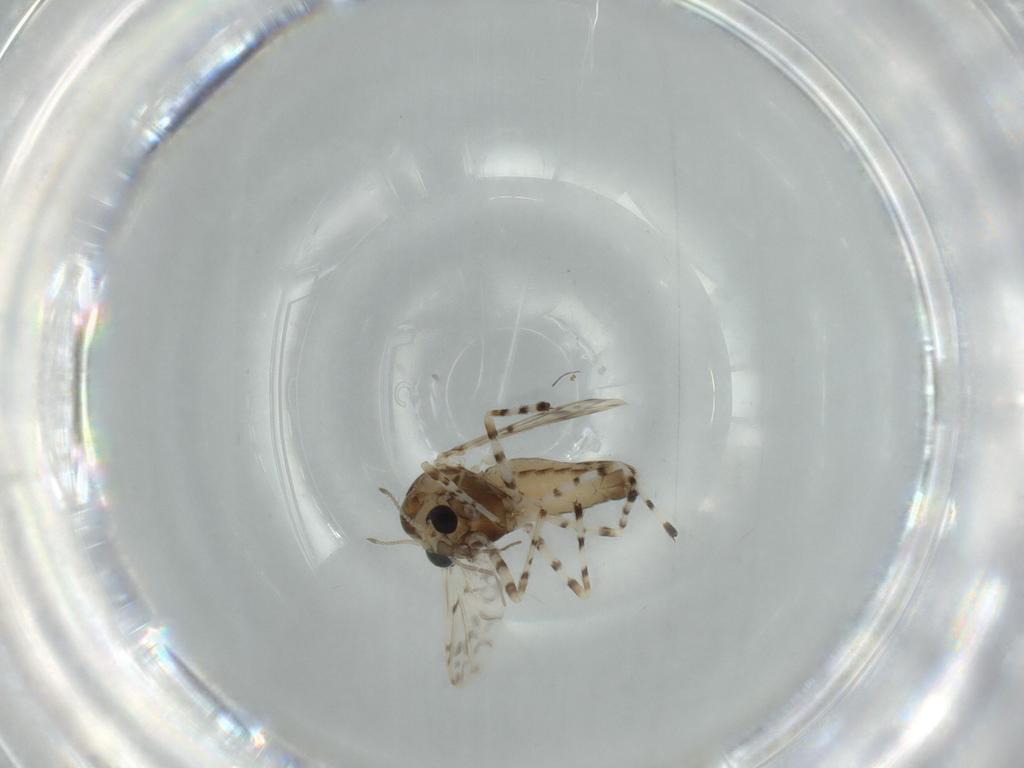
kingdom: Animalia
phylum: Arthropoda
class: Insecta
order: Diptera
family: Chironomidae
